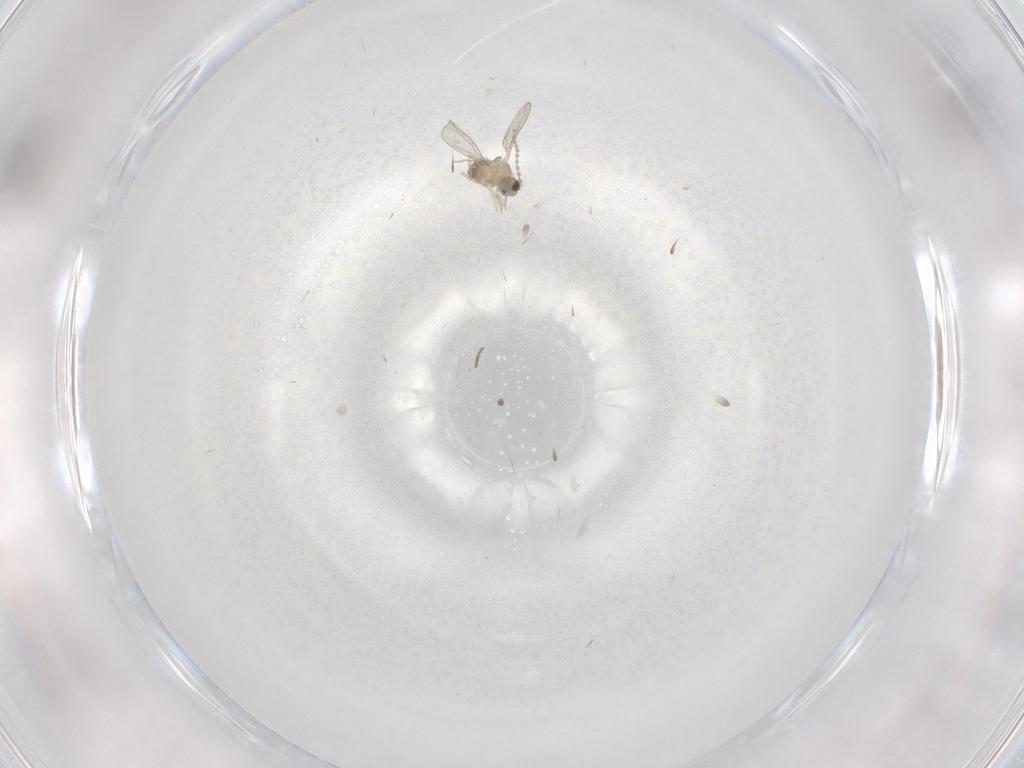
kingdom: Animalia
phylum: Arthropoda
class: Insecta
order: Diptera
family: Cecidomyiidae
